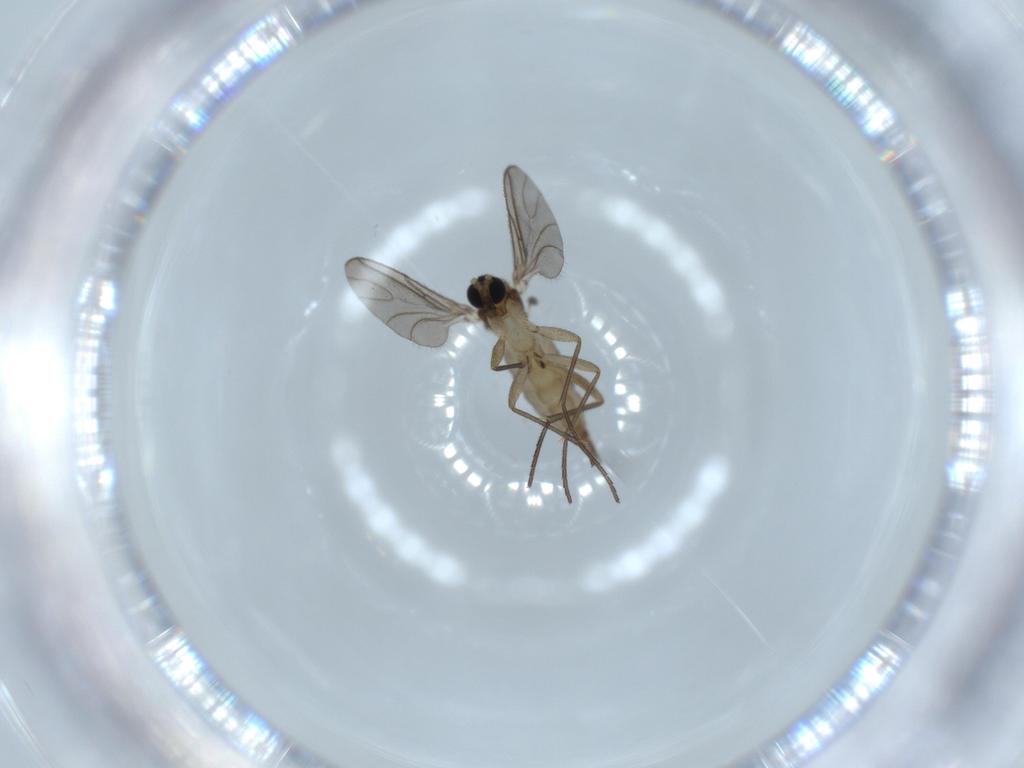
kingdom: Animalia
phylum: Arthropoda
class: Insecta
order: Diptera
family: Sciaridae
